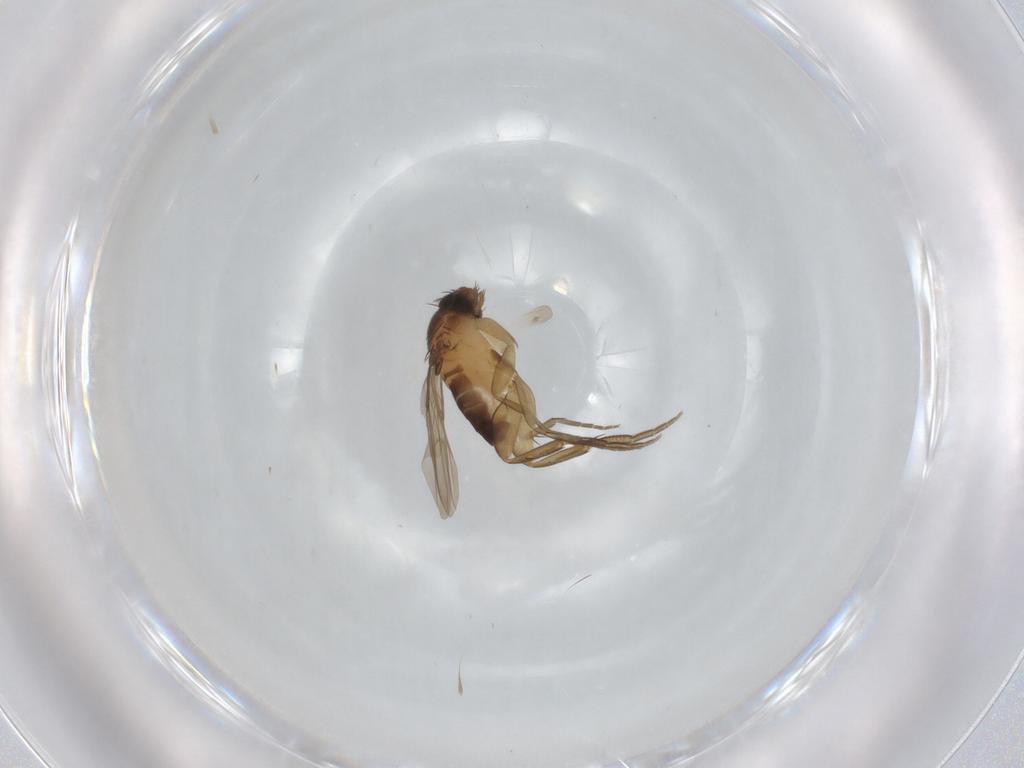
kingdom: Animalia
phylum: Arthropoda
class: Insecta
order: Diptera
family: Phoridae
